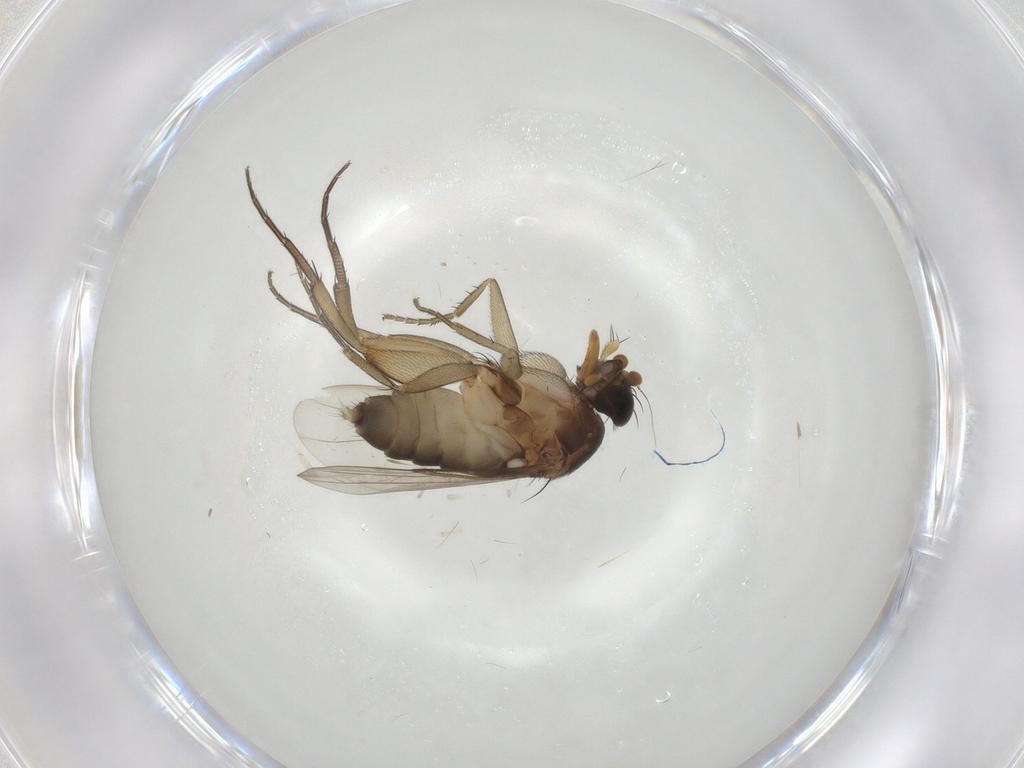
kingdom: Animalia
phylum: Arthropoda
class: Insecta
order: Diptera
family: Phoridae
